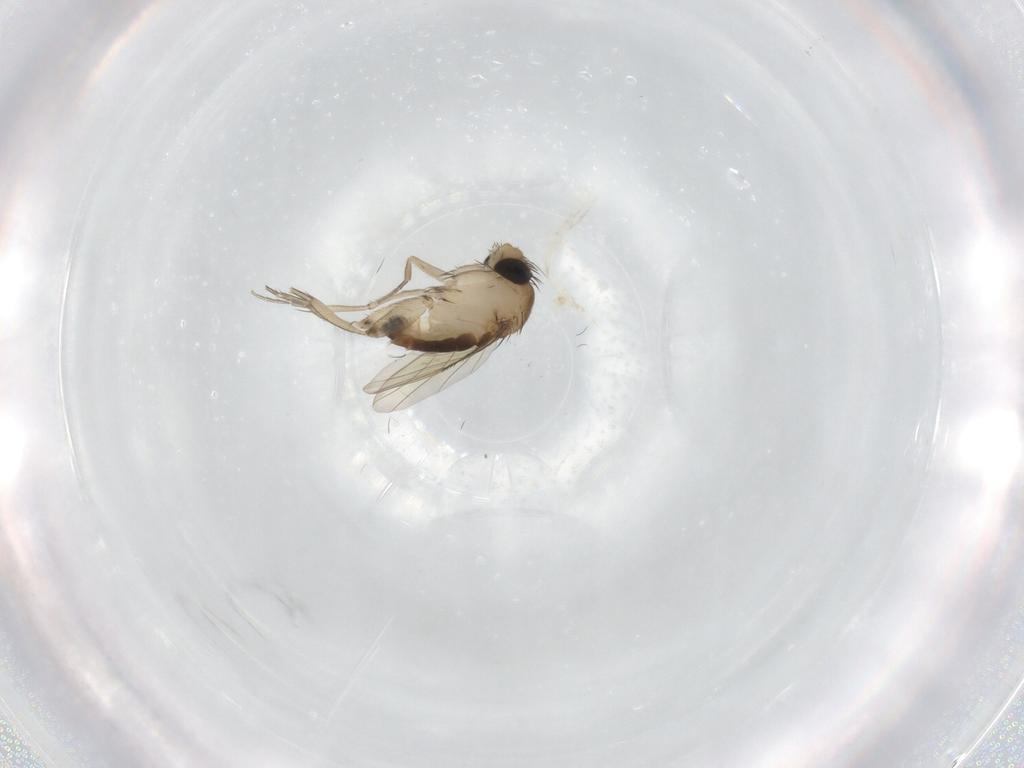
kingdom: Animalia
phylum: Arthropoda
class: Insecta
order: Diptera
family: Phoridae
